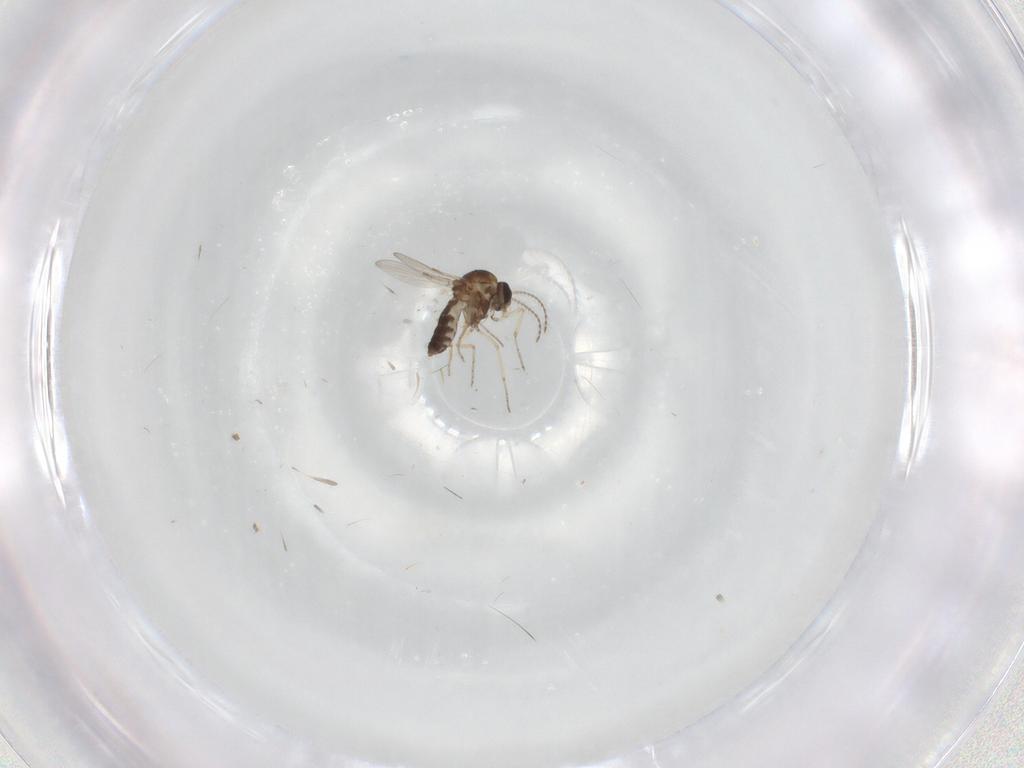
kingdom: Animalia
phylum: Arthropoda
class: Insecta
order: Diptera
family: Ceratopogonidae
